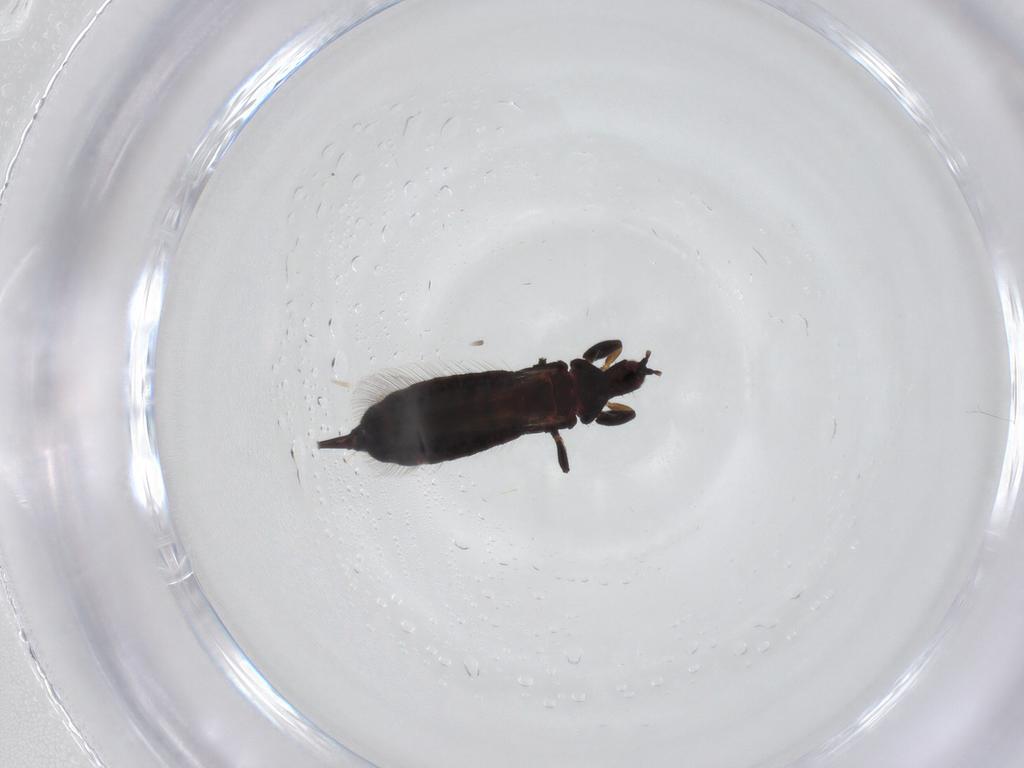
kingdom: Animalia
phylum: Arthropoda
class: Insecta
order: Thysanoptera
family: Phlaeothripidae
